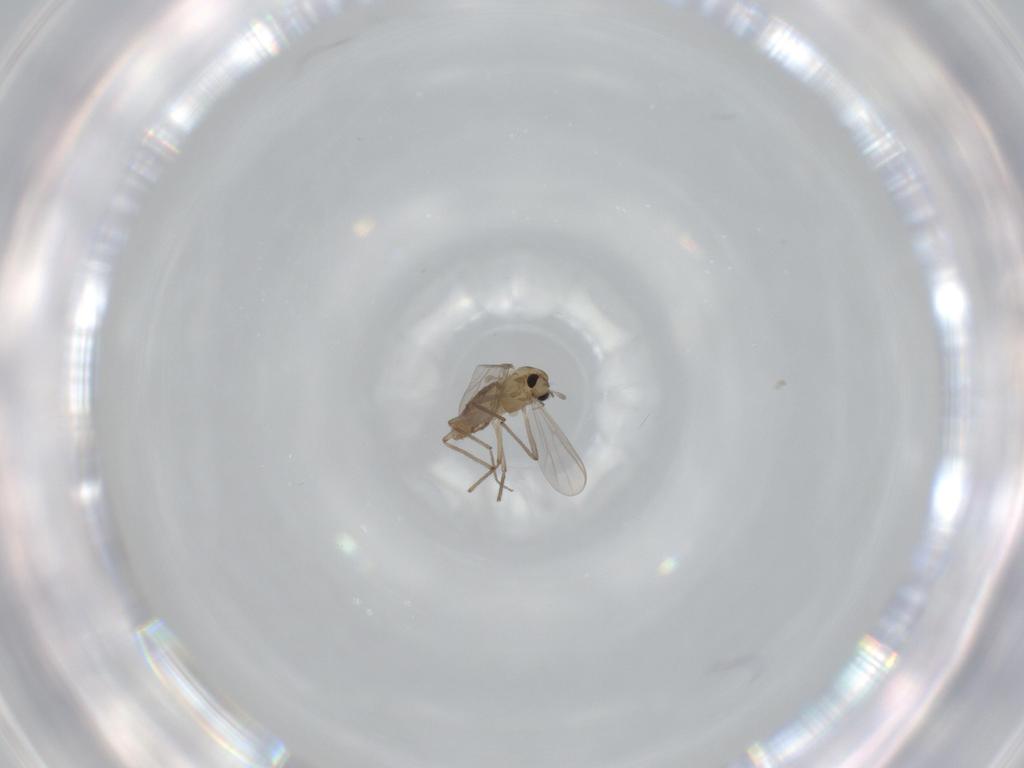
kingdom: Animalia
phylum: Arthropoda
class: Insecta
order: Diptera
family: Chironomidae
